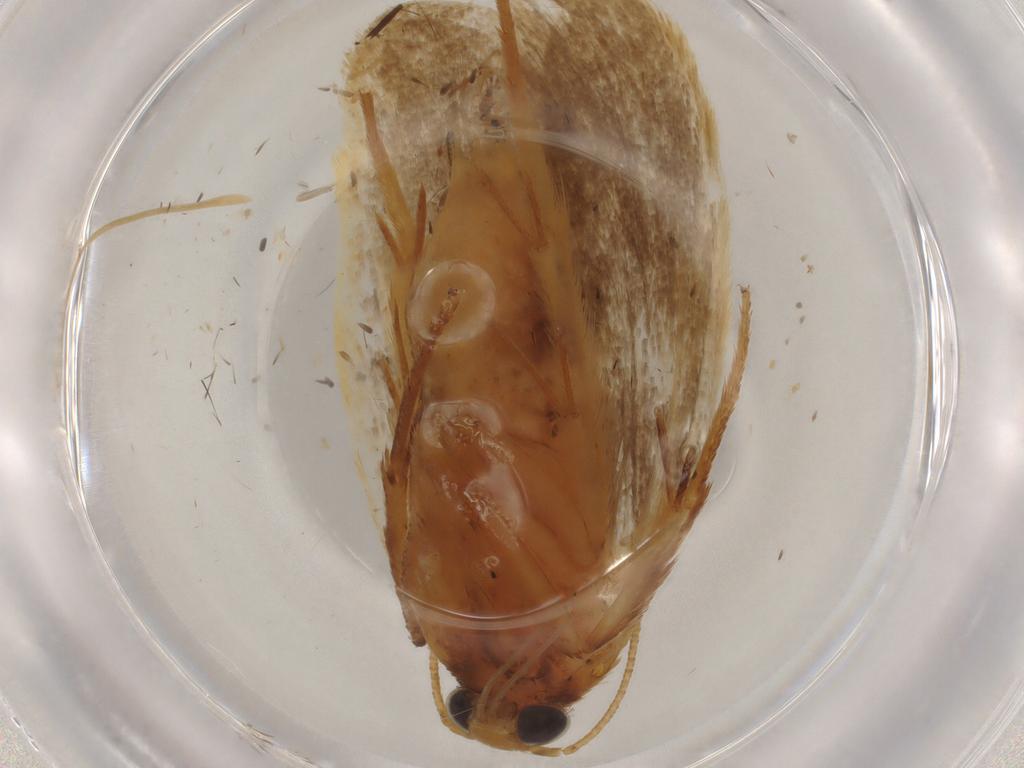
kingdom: Animalia
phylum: Arthropoda
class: Insecta
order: Lepidoptera
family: Oecophoridae
